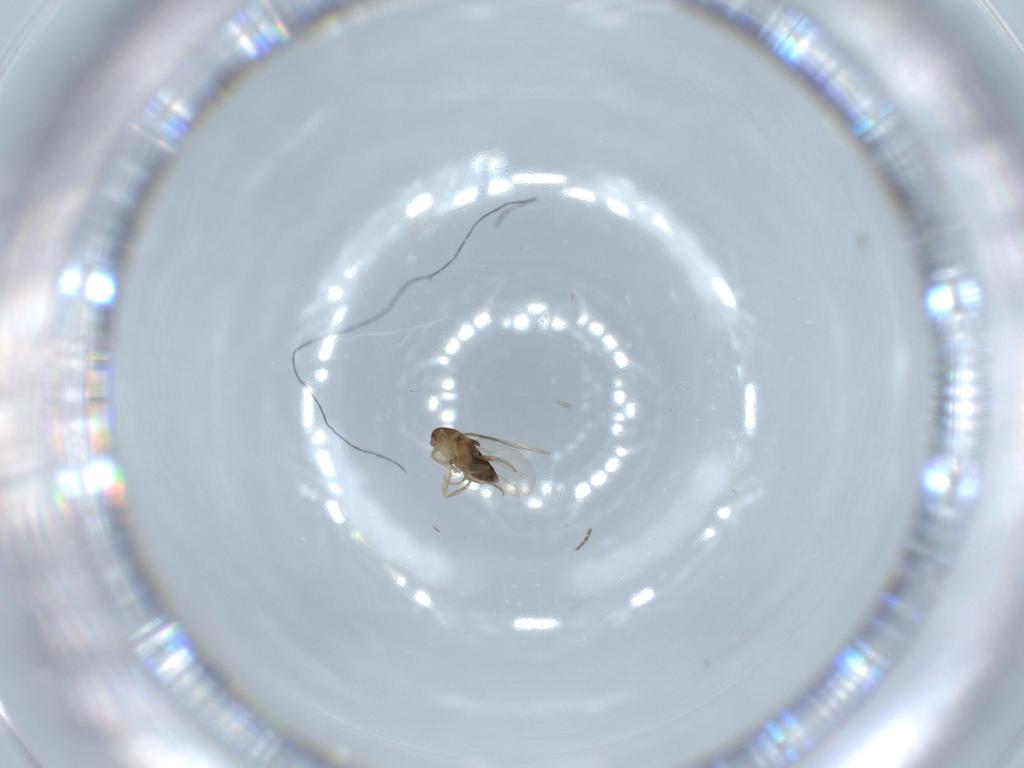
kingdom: Animalia
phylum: Arthropoda
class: Insecta
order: Diptera
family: Phoridae
